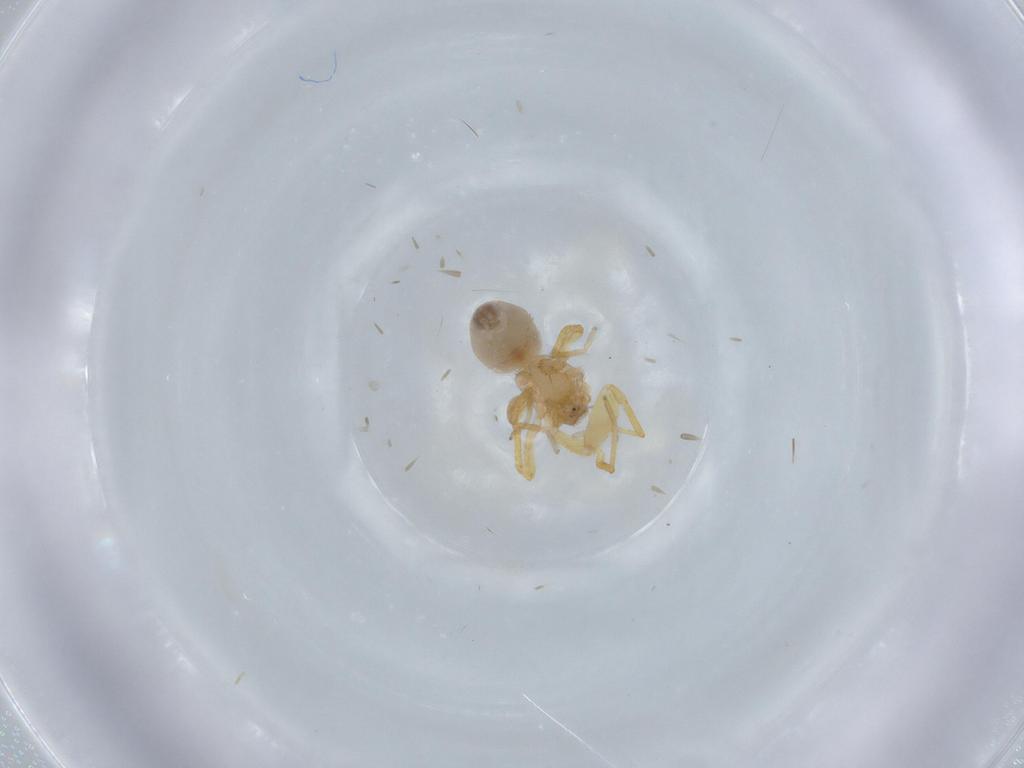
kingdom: Animalia
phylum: Arthropoda
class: Arachnida
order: Araneae
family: Oonopidae
